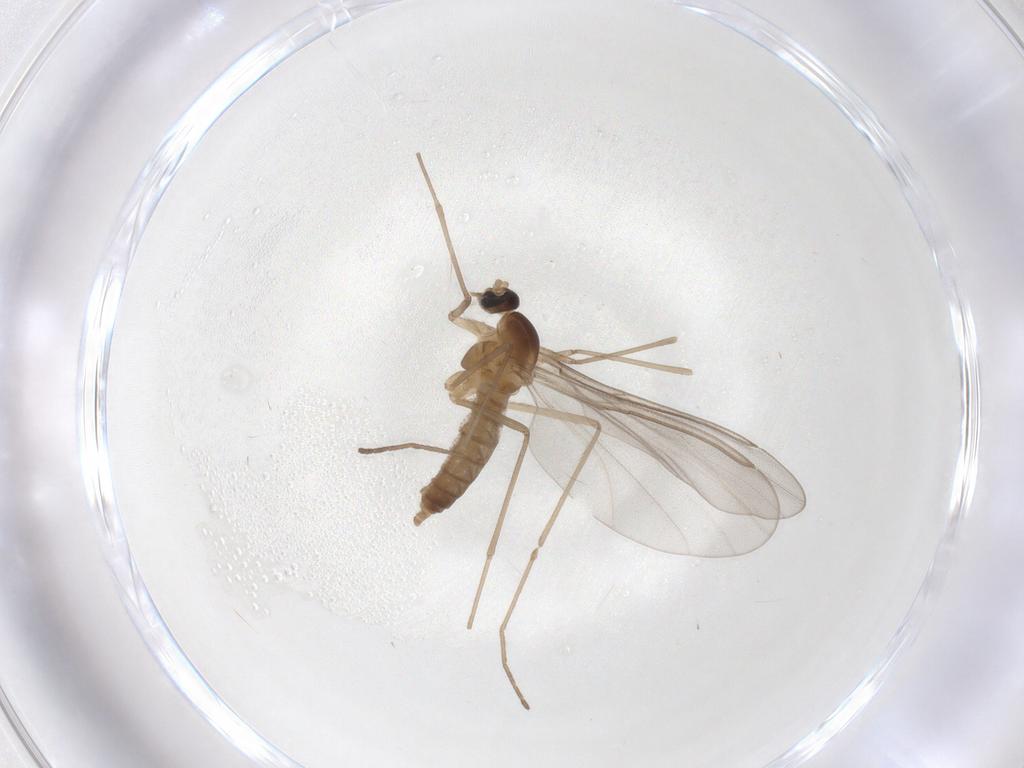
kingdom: Animalia
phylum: Arthropoda
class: Insecta
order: Diptera
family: Cecidomyiidae
